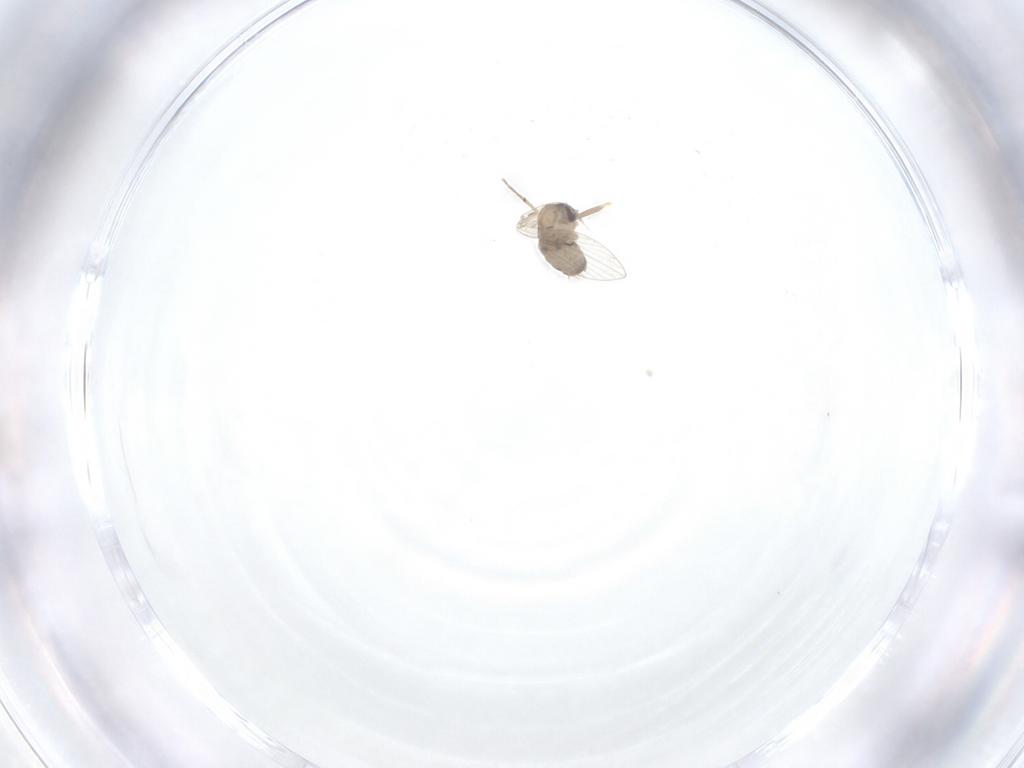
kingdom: Animalia
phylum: Arthropoda
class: Insecta
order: Diptera
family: Psychodidae
